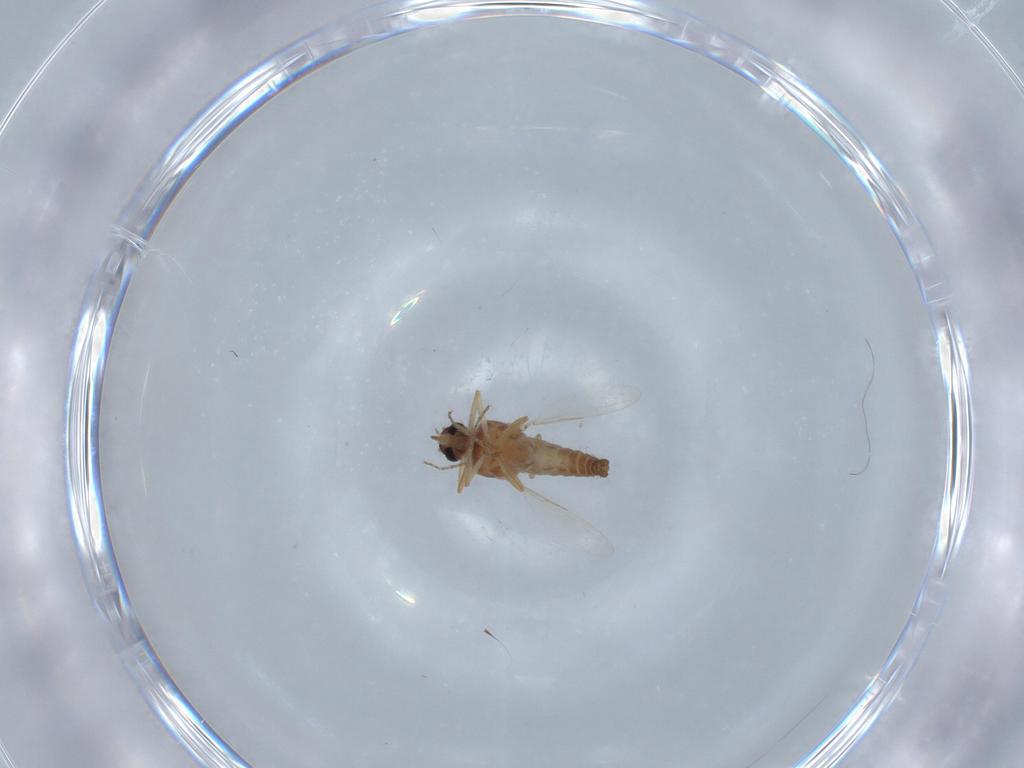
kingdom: Animalia
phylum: Arthropoda
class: Insecta
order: Diptera
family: Ceratopogonidae
